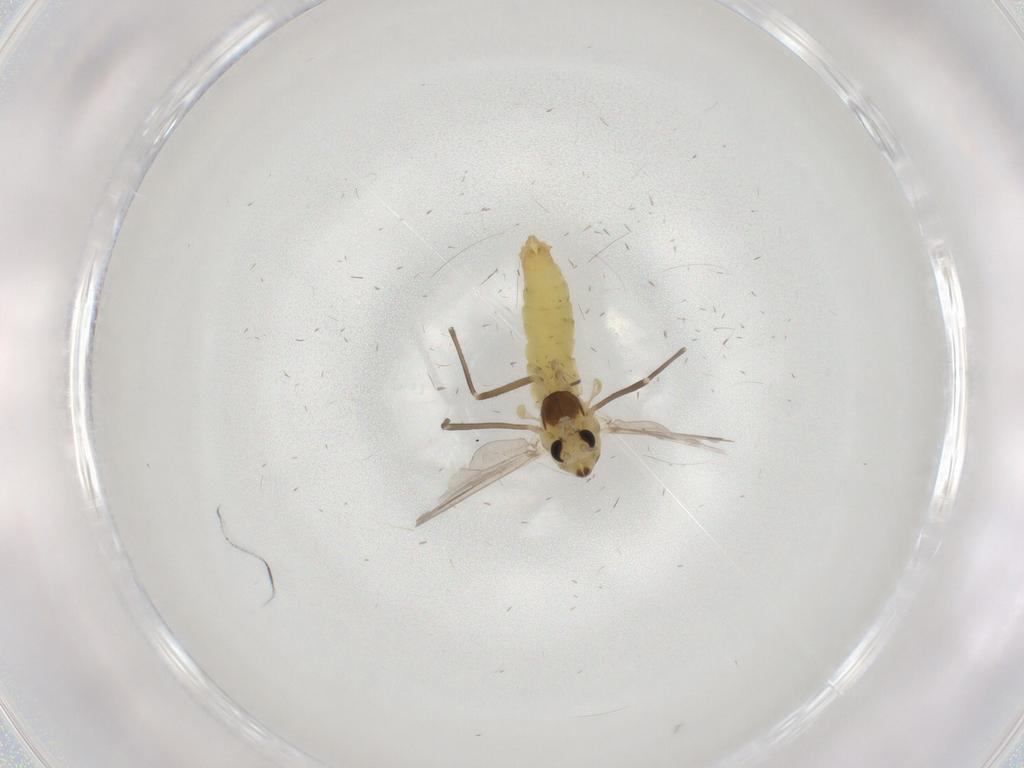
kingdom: Animalia
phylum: Arthropoda
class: Insecta
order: Diptera
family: Chironomidae
